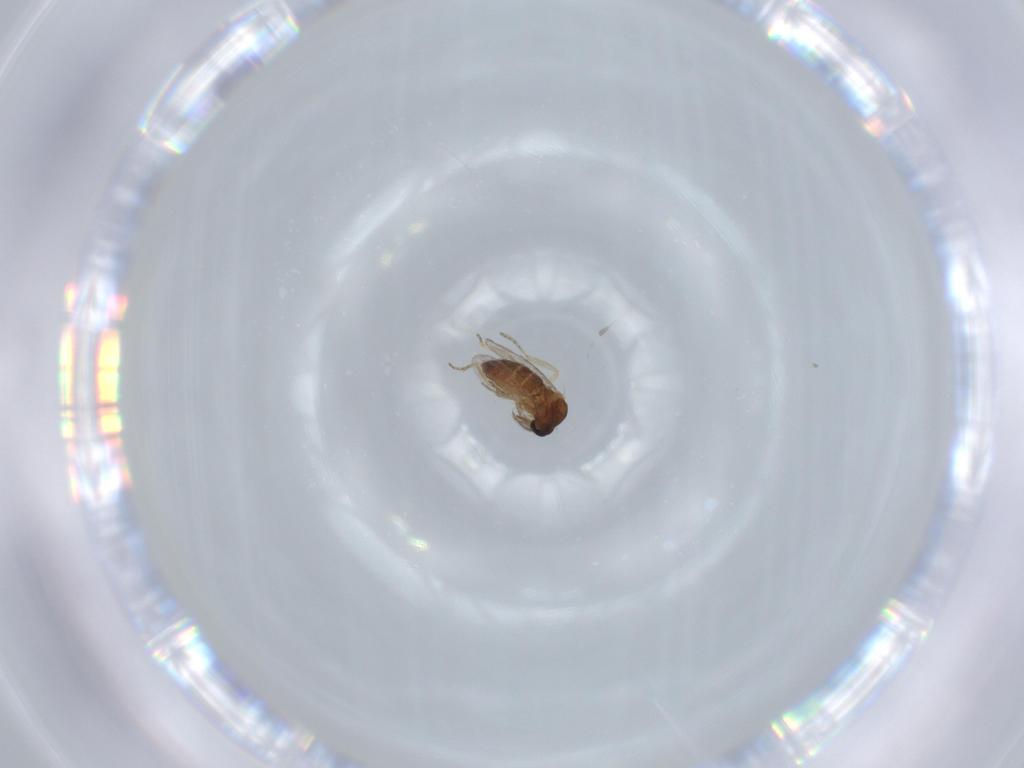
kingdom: Animalia
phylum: Arthropoda
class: Insecta
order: Diptera
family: Ceratopogonidae
